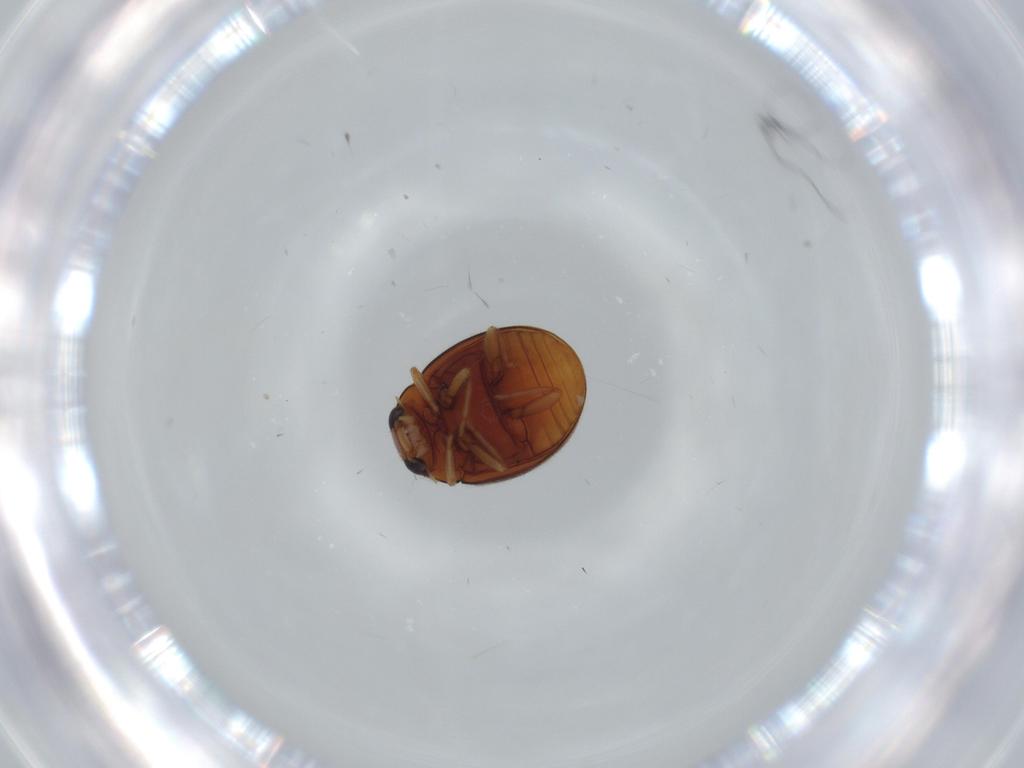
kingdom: Animalia
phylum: Arthropoda
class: Insecta
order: Coleoptera
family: Coccinellidae
